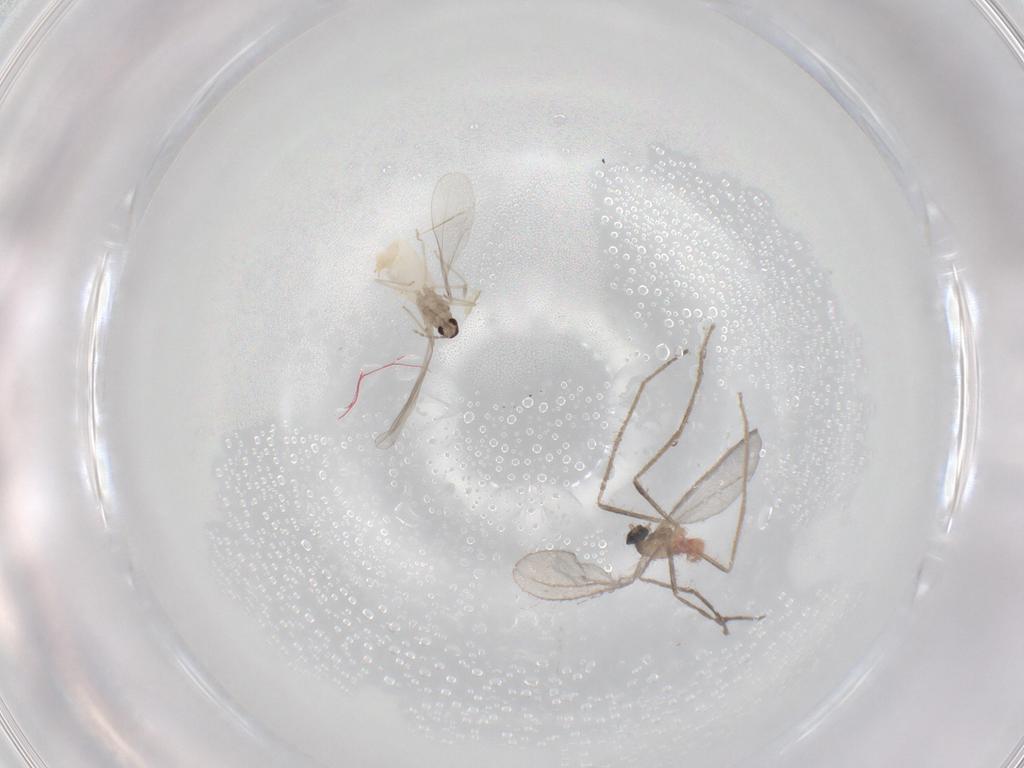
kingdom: Animalia
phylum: Arthropoda
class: Insecta
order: Diptera
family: Cecidomyiidae
